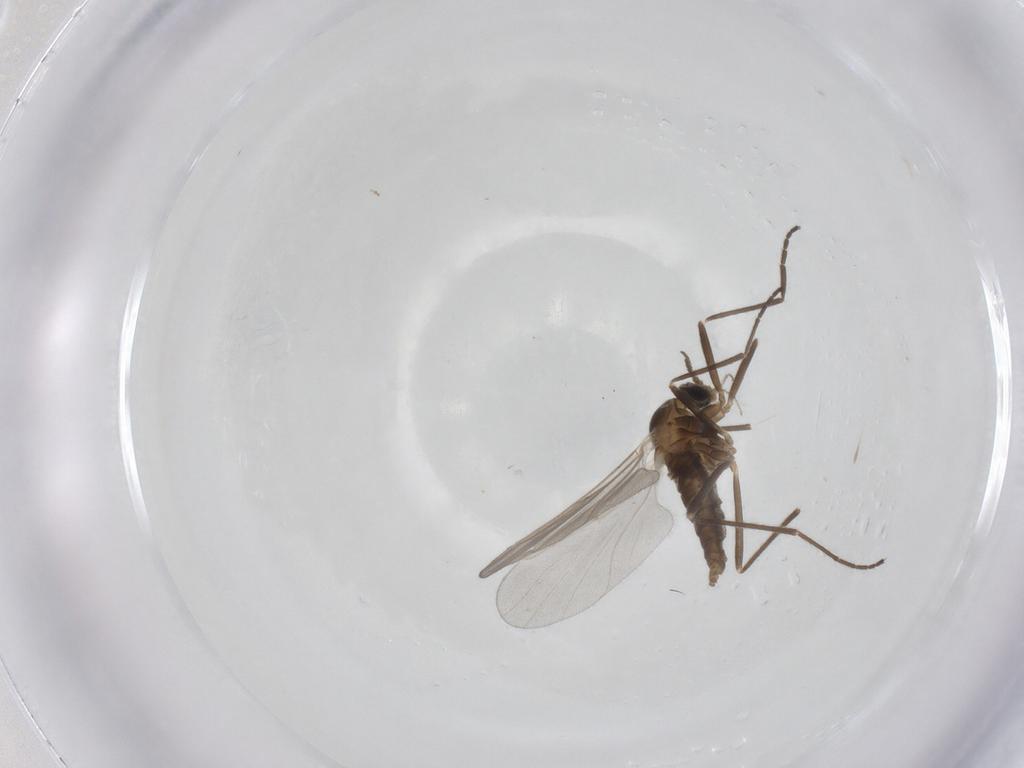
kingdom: Animalia
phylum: Arthropoda
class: Insecta
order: Diptera
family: Cecidomyiidae
